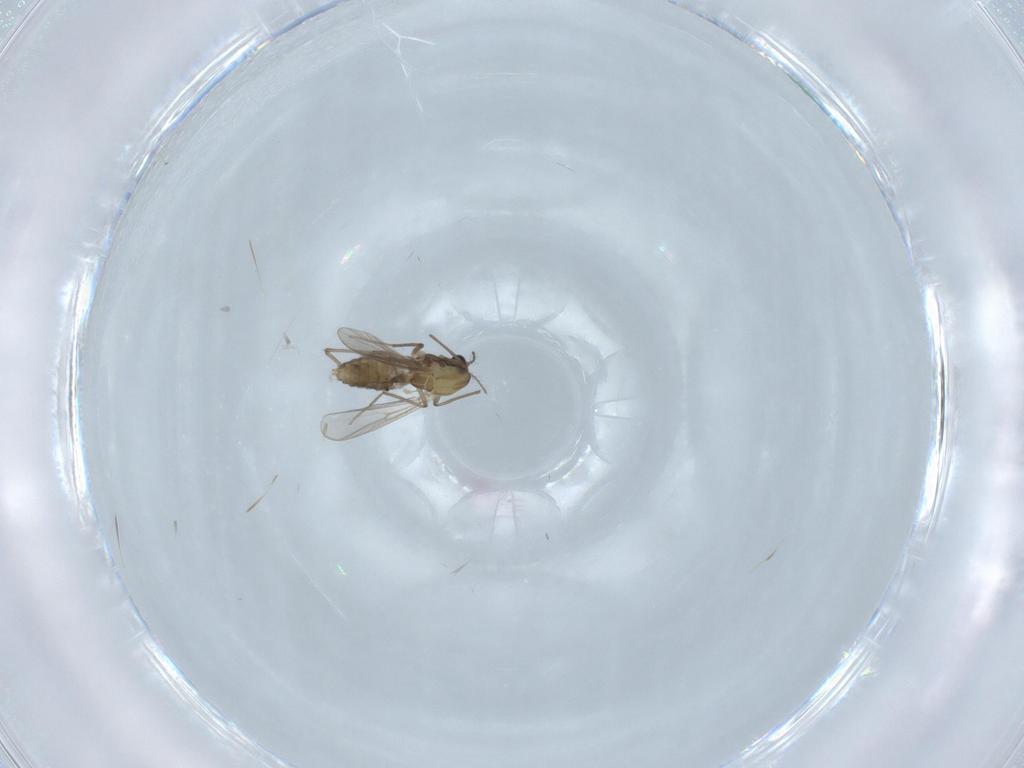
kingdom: Animalia
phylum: Arthropoda
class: Insecta
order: Diptera
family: Chironomidae
